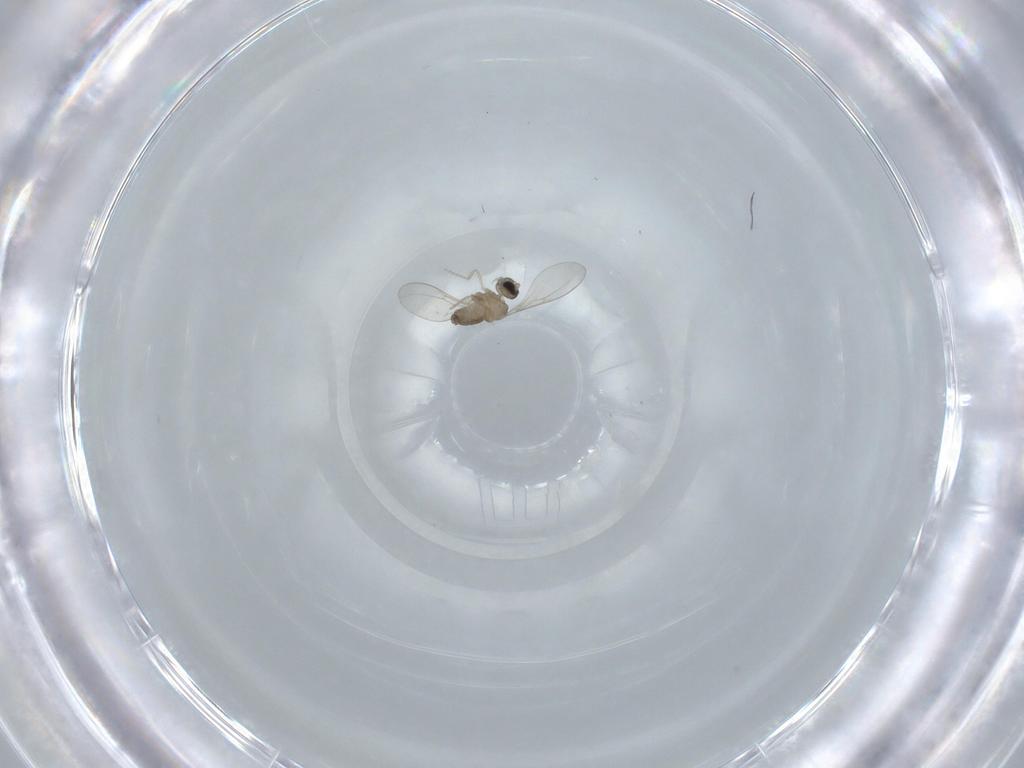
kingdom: Animalia
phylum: Arthropoda
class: Insecta
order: Diptera
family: Cecidomyiidae
